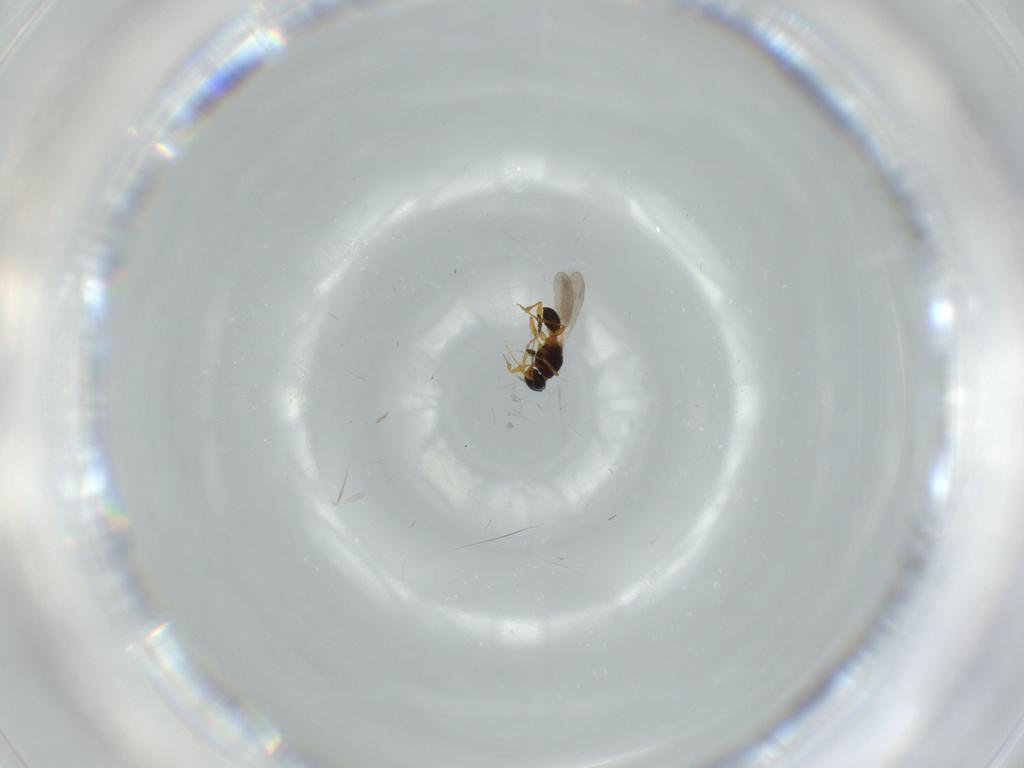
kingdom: Animalia
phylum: Arthropoda
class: Insecta
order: Hymenoptera
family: Platygastridae
